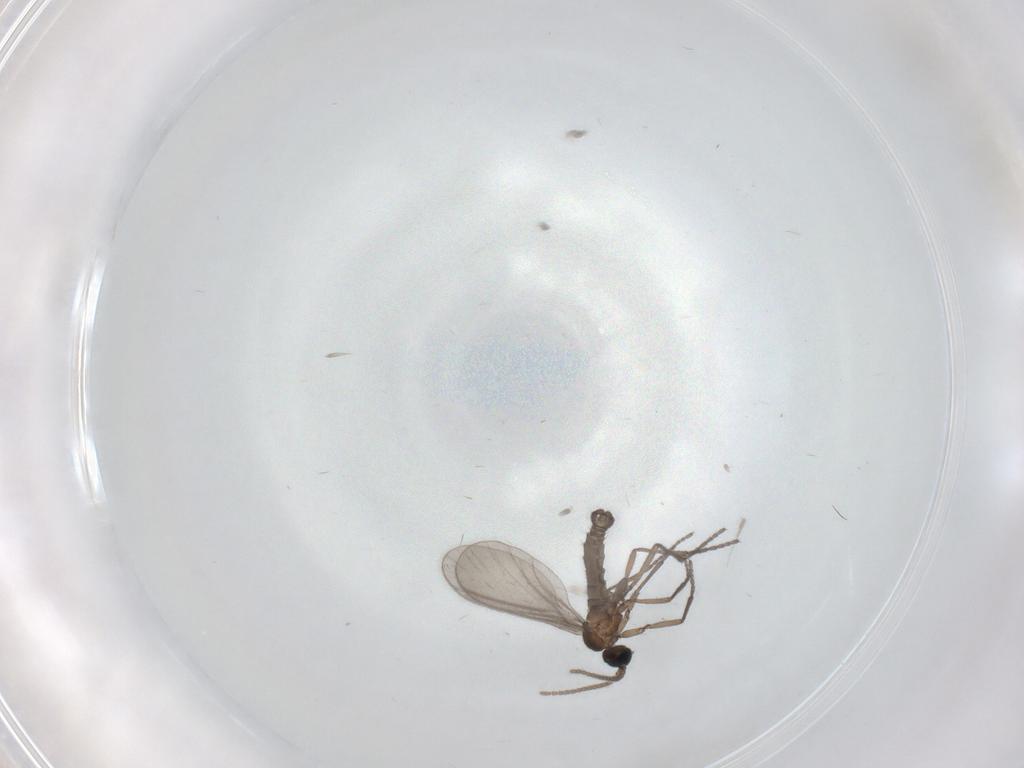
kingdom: Animalia
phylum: Arthropoda
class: Insecta
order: Diptera
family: Sciaridae
